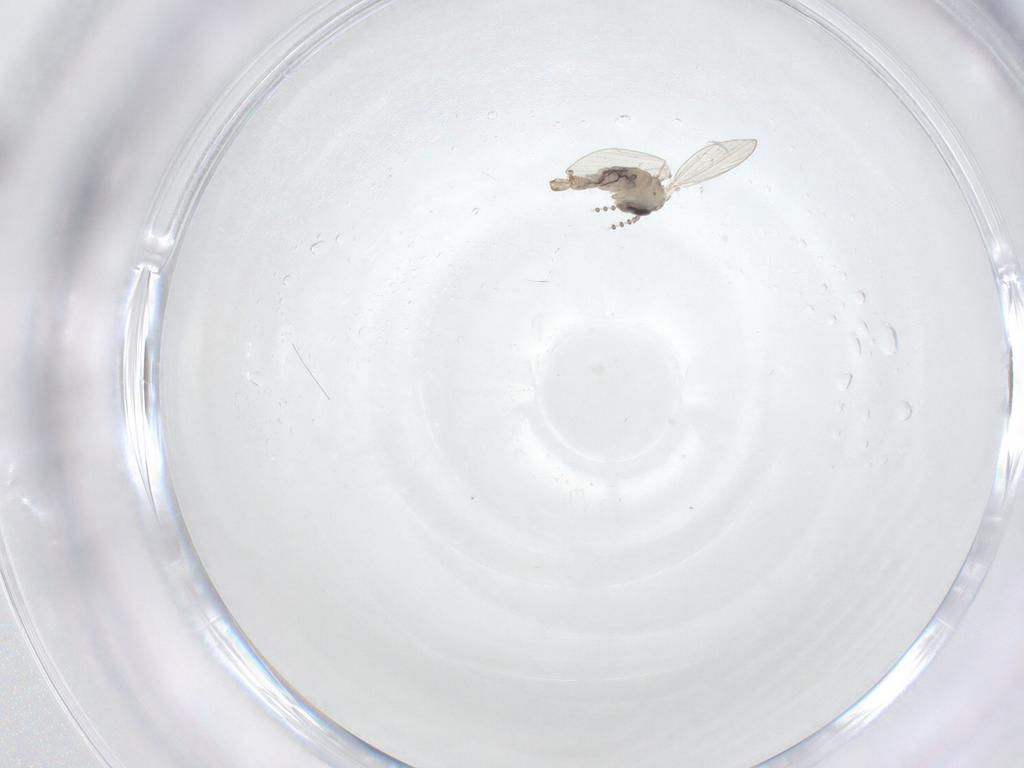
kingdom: Animalia
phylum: Arthropoda
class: Insecta
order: Diptera
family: Psychodidae
